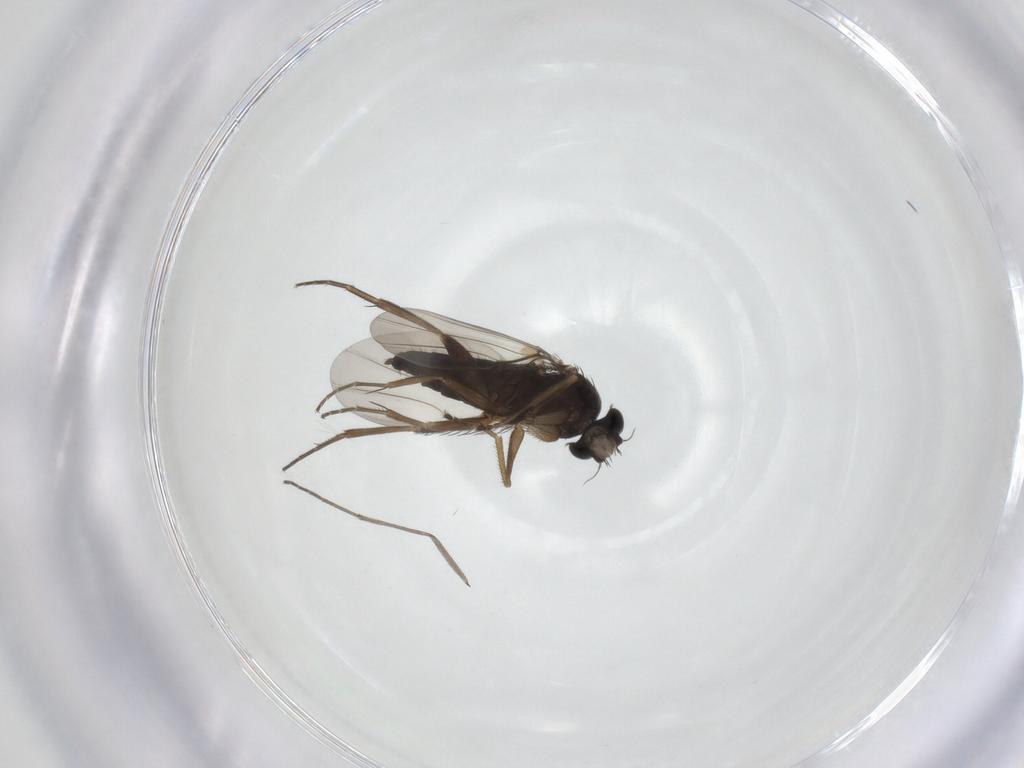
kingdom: Animalia
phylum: Arthropoda
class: Insecta
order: Diptera
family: Phoridae
